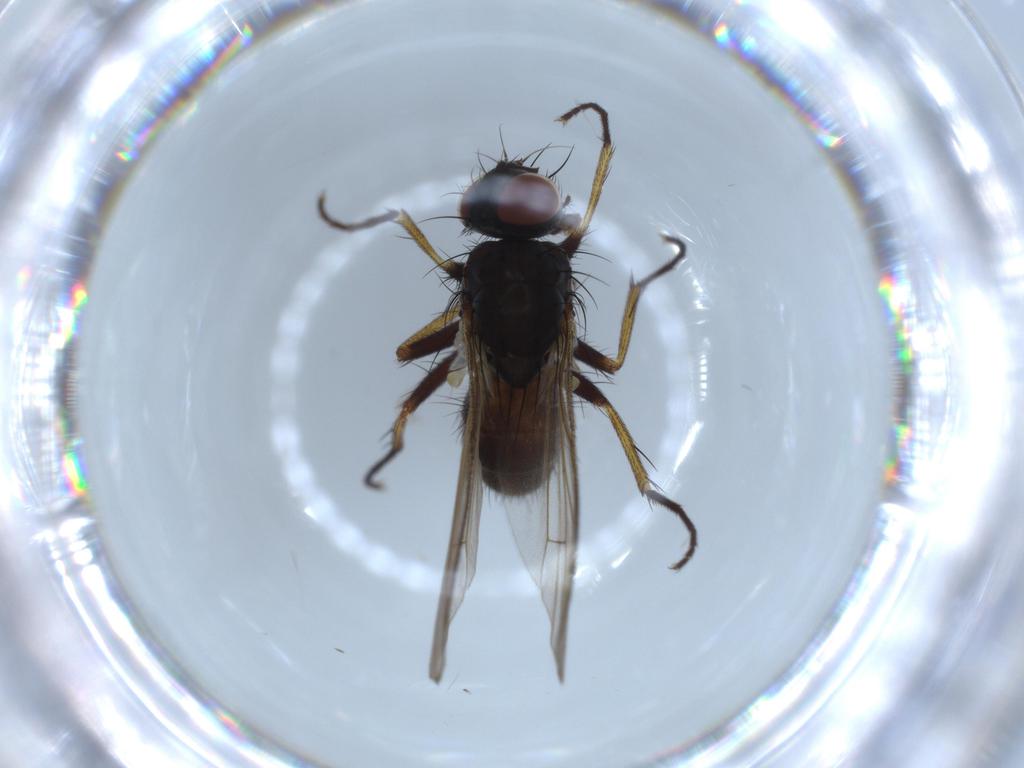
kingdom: Animalia
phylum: Arthropoda
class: Insecta
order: Diptera
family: Muscidae
